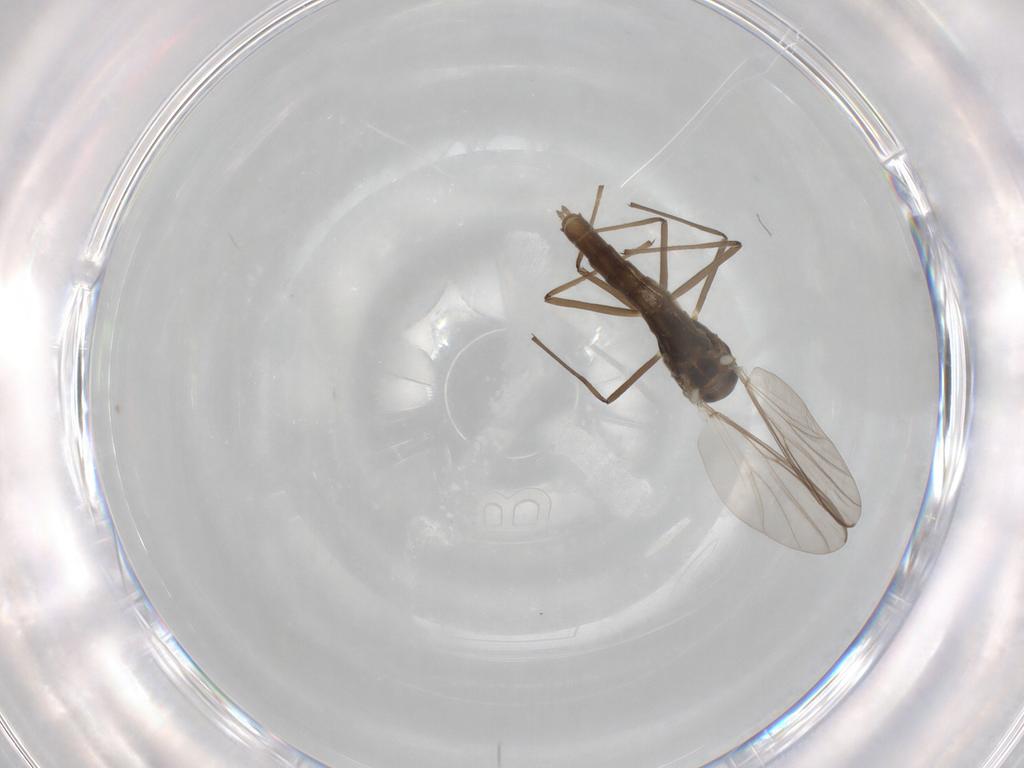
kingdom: Animalia
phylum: Arthropoda
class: Insecta
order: Diptera
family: Chironomidae
